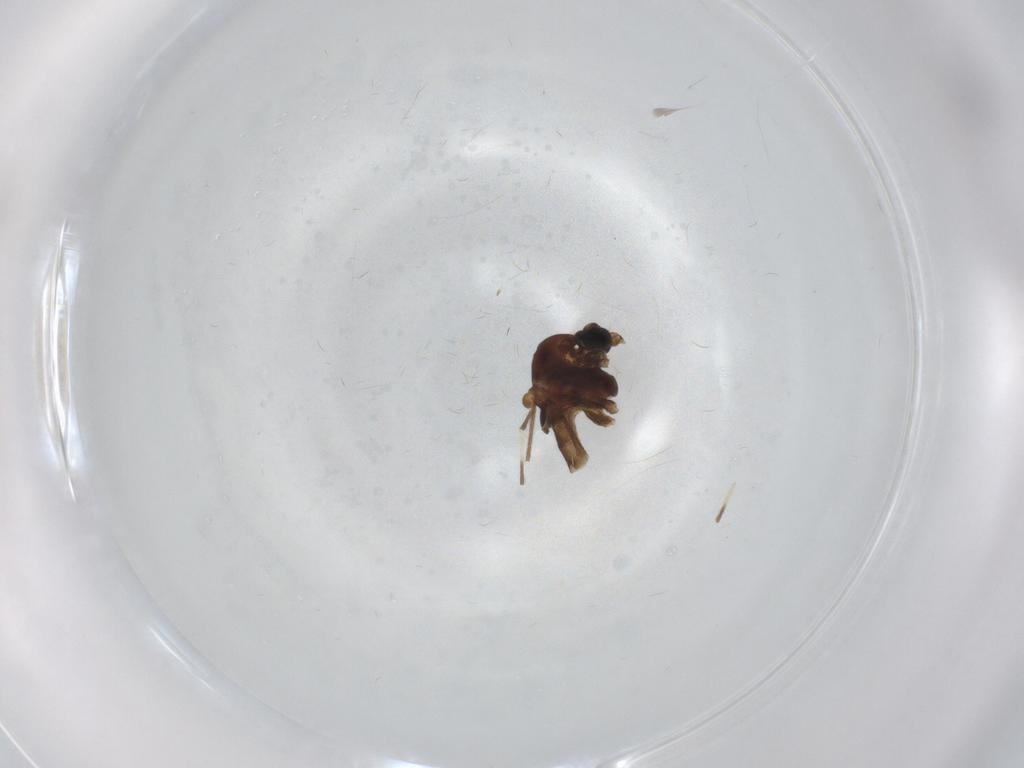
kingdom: Animalia
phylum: Arthropoda
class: Insecta
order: Diptera
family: Chironomidae
